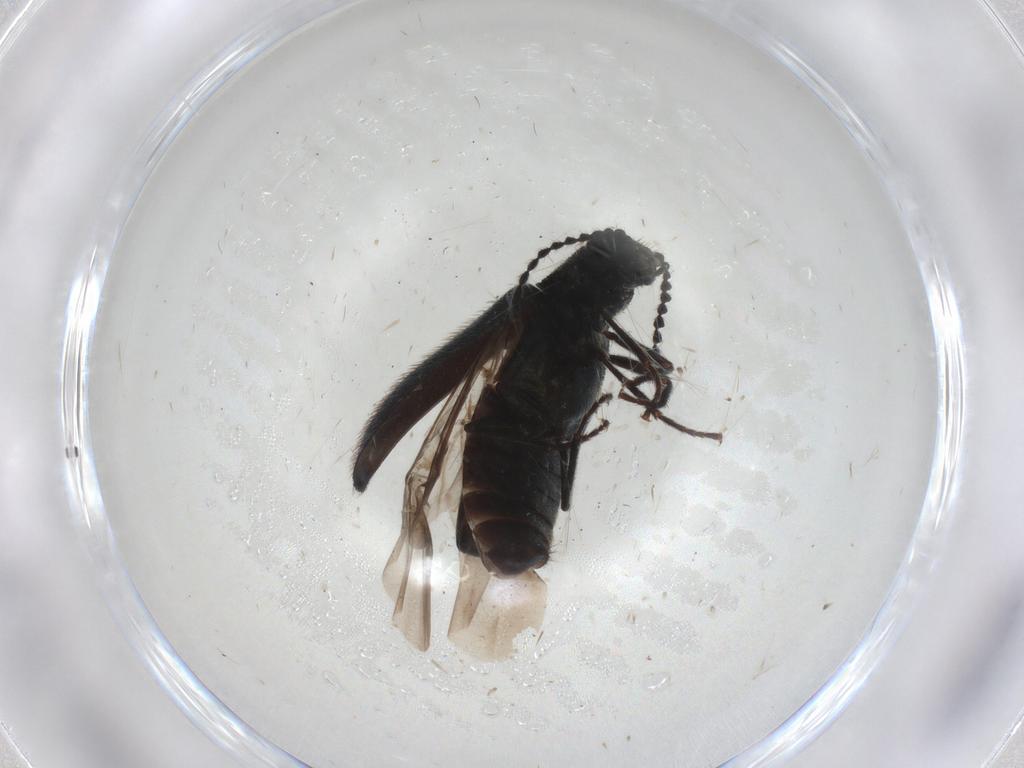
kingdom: Animalia
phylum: Arthropoda
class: Insecta
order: Coleoptera
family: Melyridae
